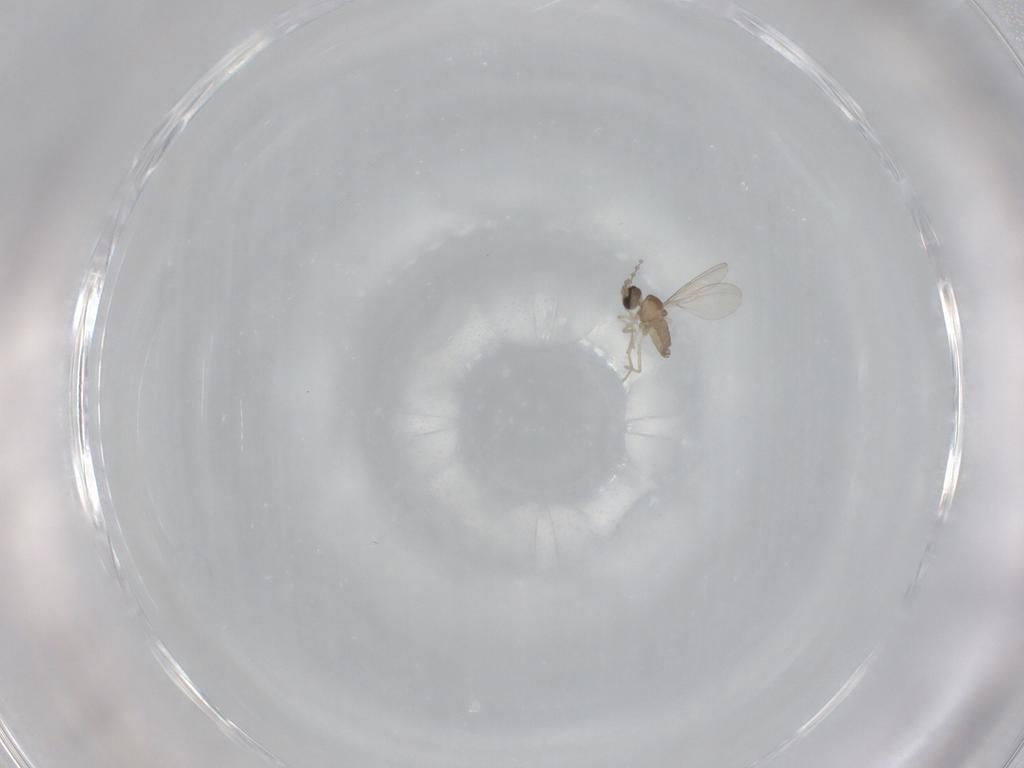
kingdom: Animalia
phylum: Arthropoda
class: Insecta
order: Diptera
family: Cecidomyiidae
